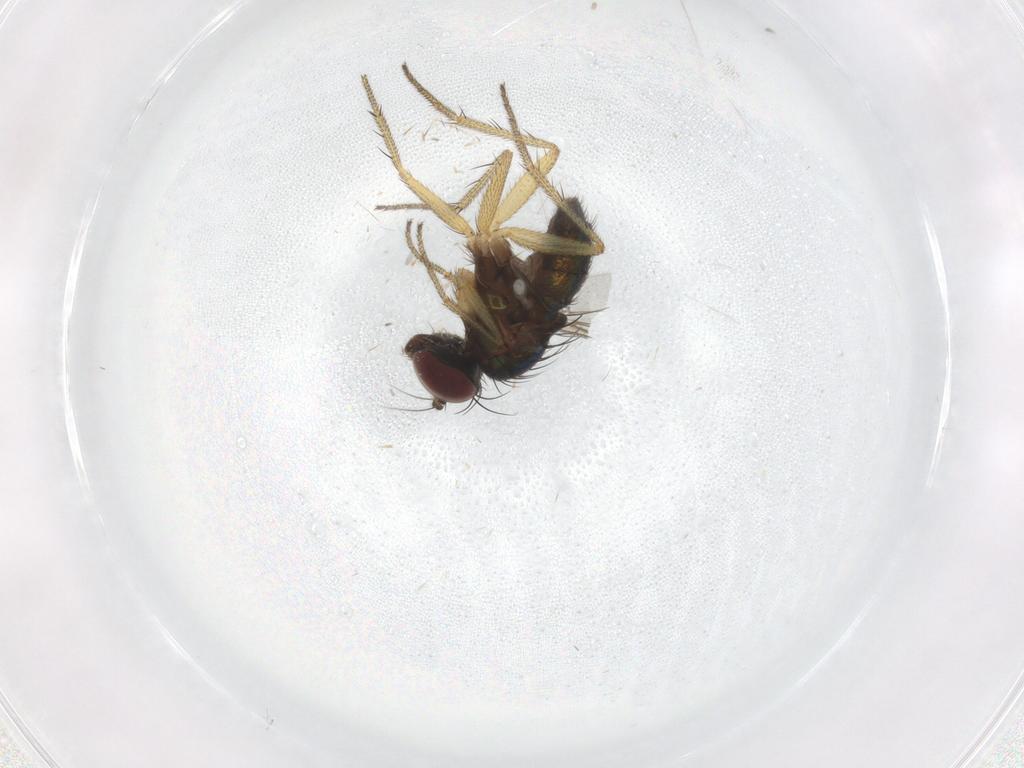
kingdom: Animalia
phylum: Arthropoda
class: Insecta
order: Diptera
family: Dolichopodidae
